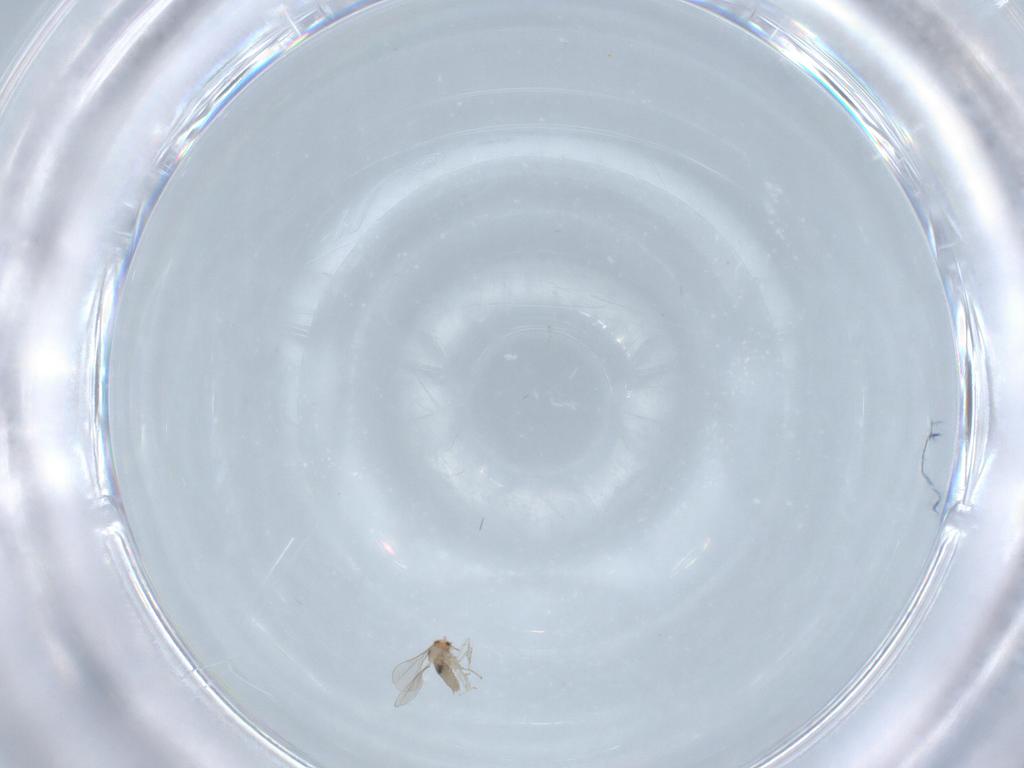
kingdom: Animalia
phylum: Arthropoda
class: Insecta
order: Diptera
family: Cecidomyiidae
